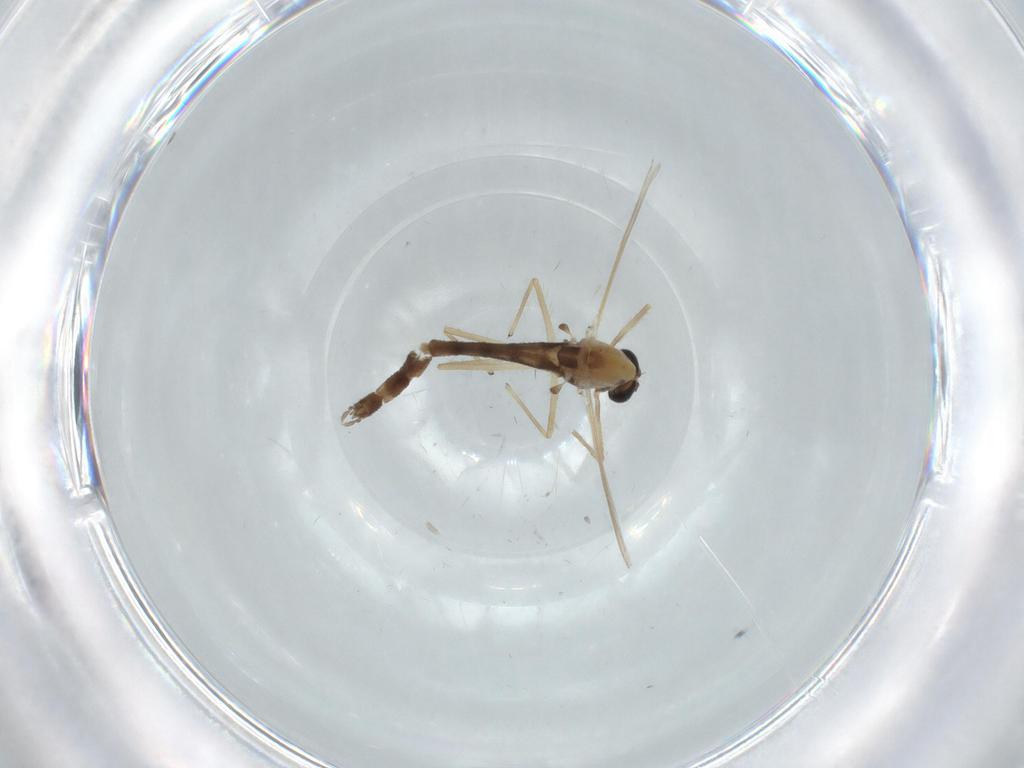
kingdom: Animalia
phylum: Arthropoda
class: Insecta
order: Diptera
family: Chironomidae
